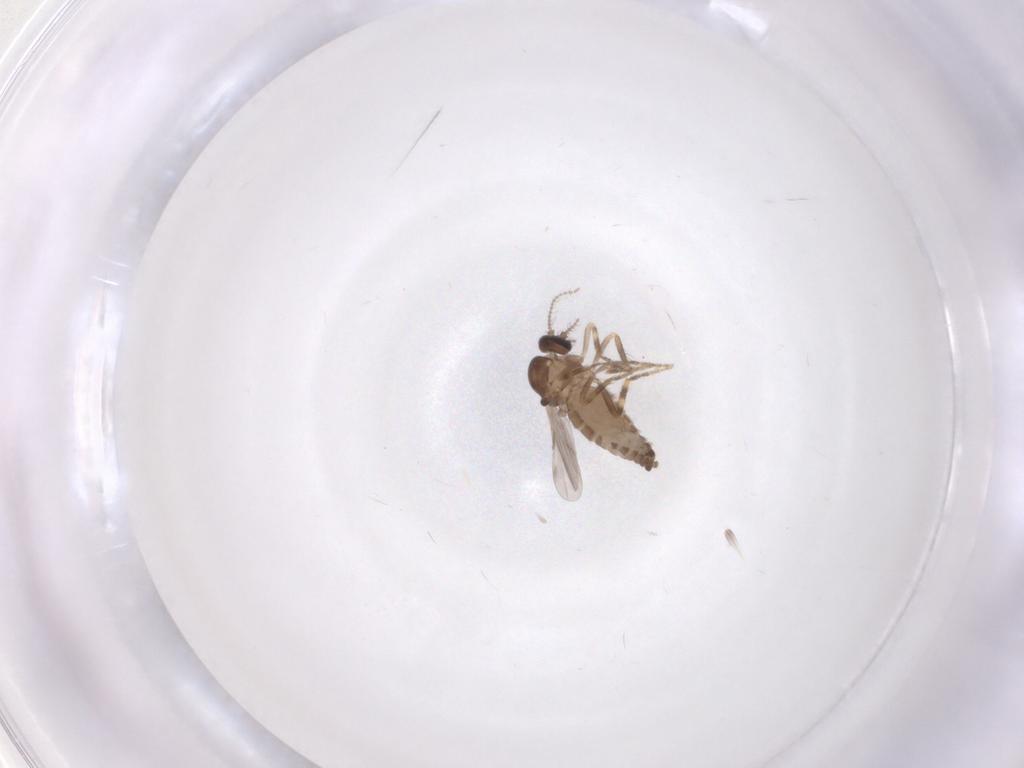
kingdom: Animalia
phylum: Arthropoda
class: Insecta
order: Diptera
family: Ceratopogonidae
